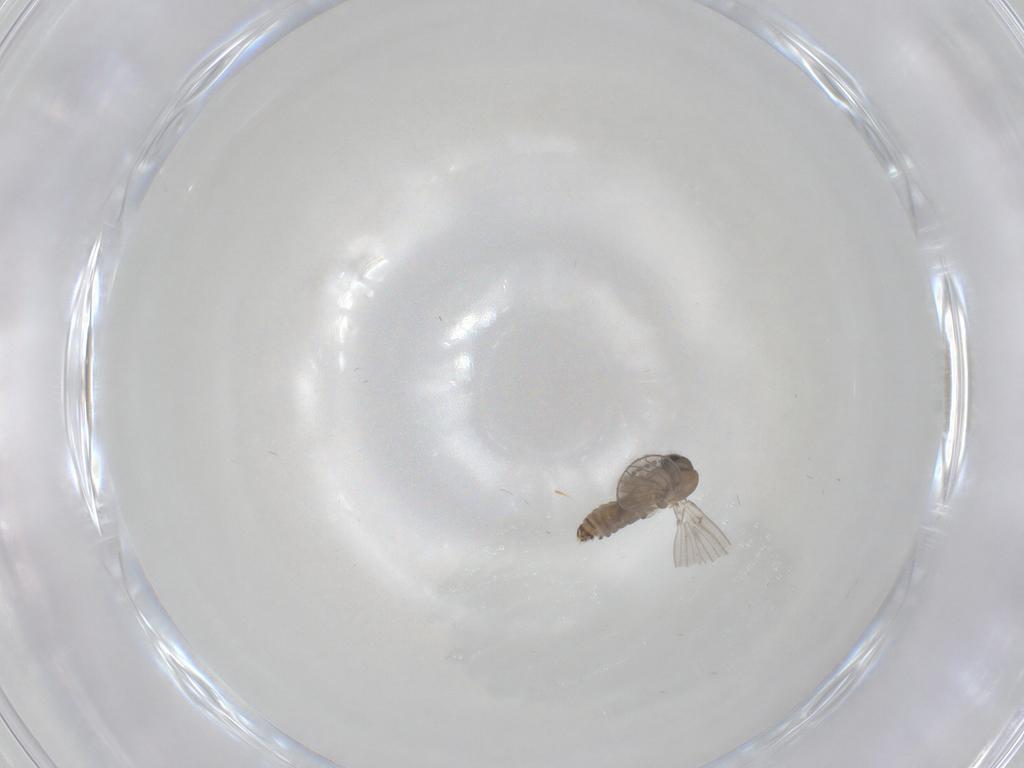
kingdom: Animalia
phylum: Arthropoda
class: Insecta
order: Diptera
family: Psychodidae
